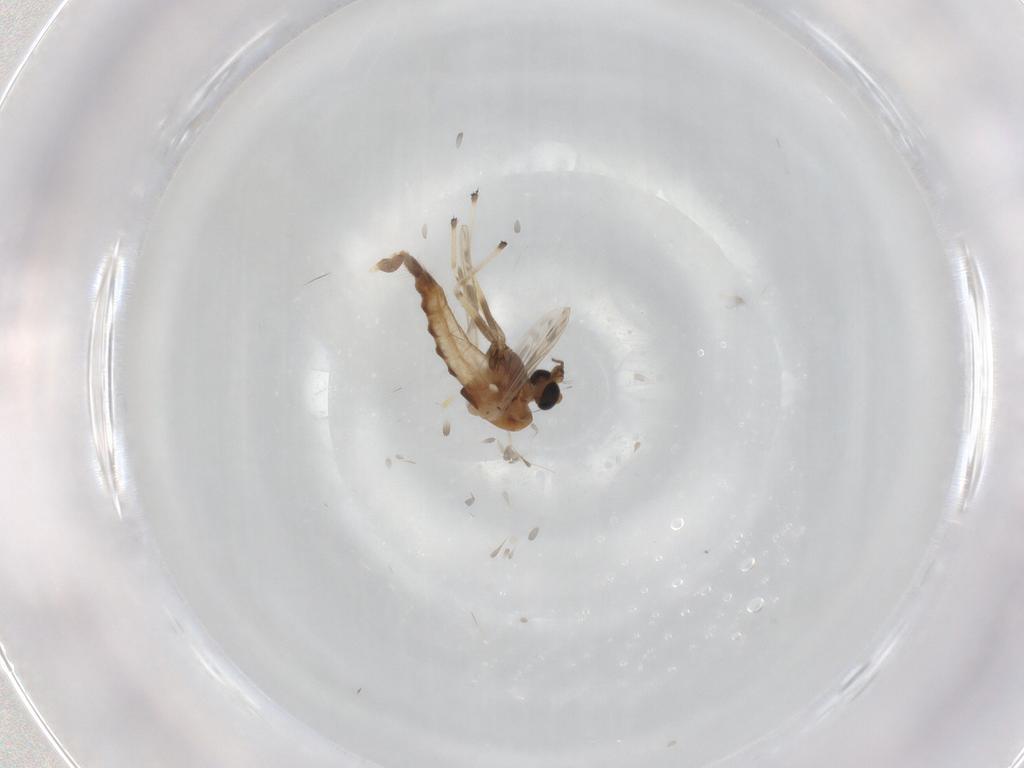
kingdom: Animalia
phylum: Arthropoda
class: Insecta
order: Diptera
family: Chironomidae
